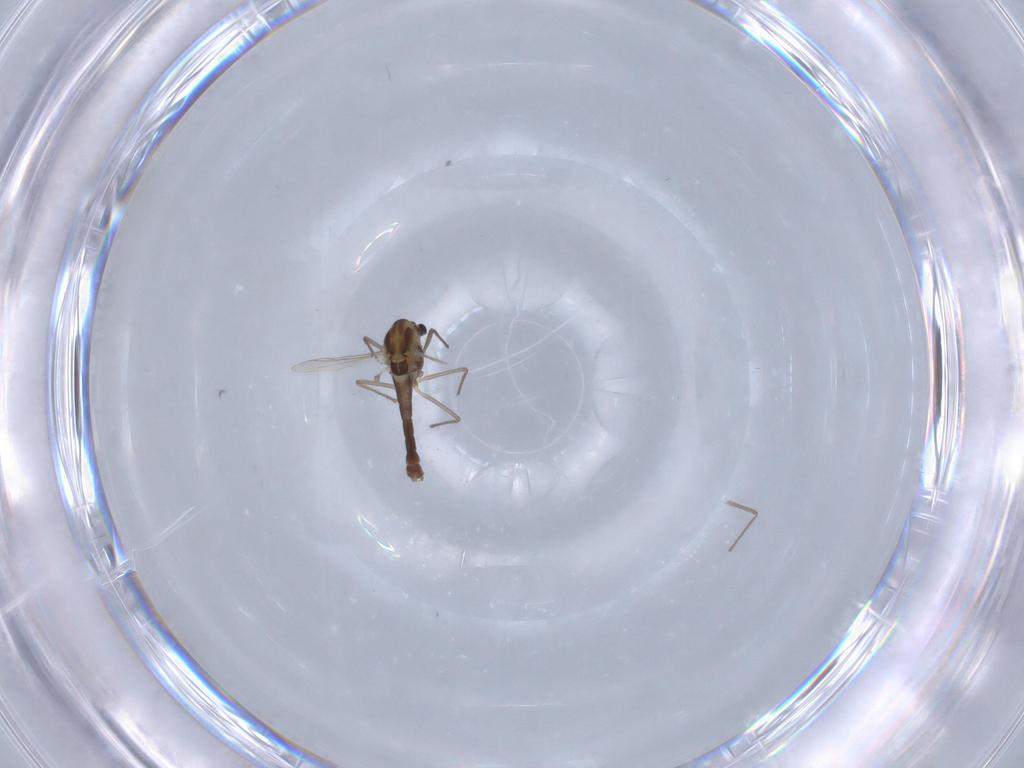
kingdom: Animalia
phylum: Arthropoda
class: Insecta
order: Diptera
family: Chironomidae
